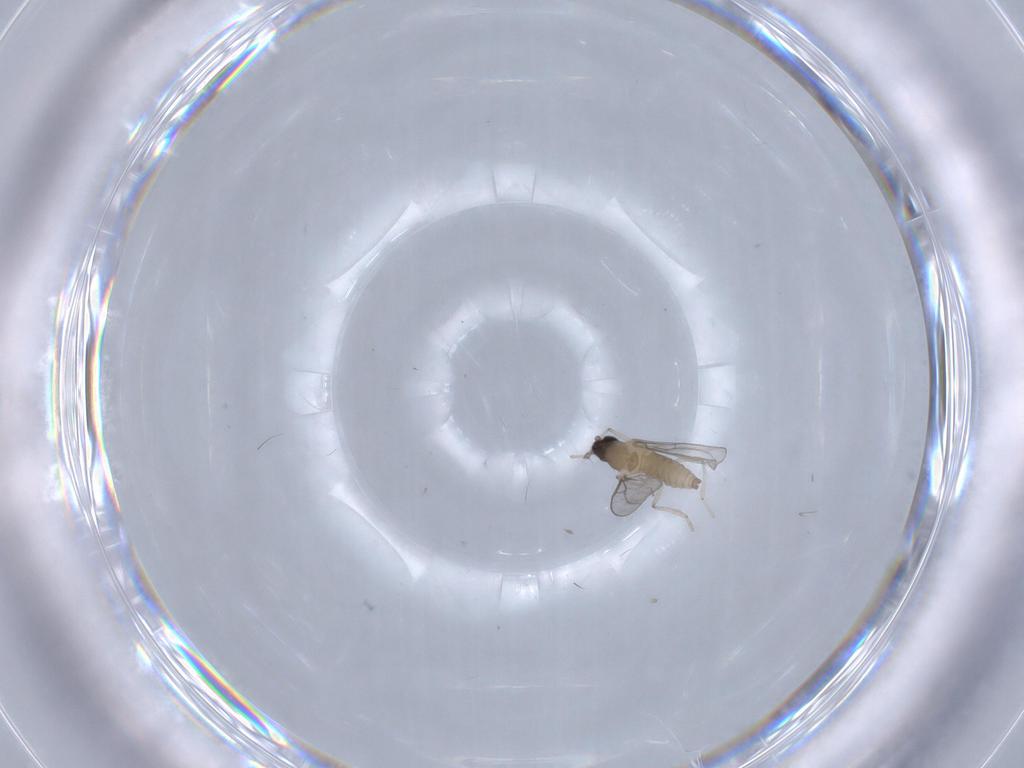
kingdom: Animalia
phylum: Arthropoda
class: Insecta
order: Diptera
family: Cecidomyiidae
